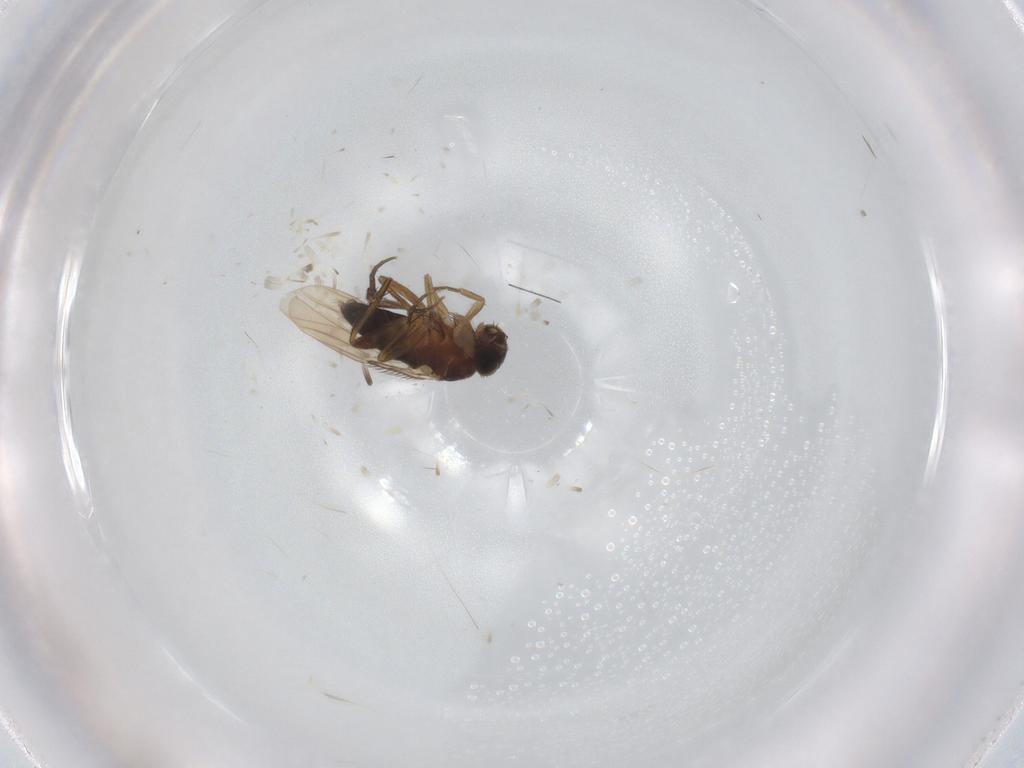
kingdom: Animalia
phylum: Arthropoda
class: Insecta
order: Diptera
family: Phoridae
